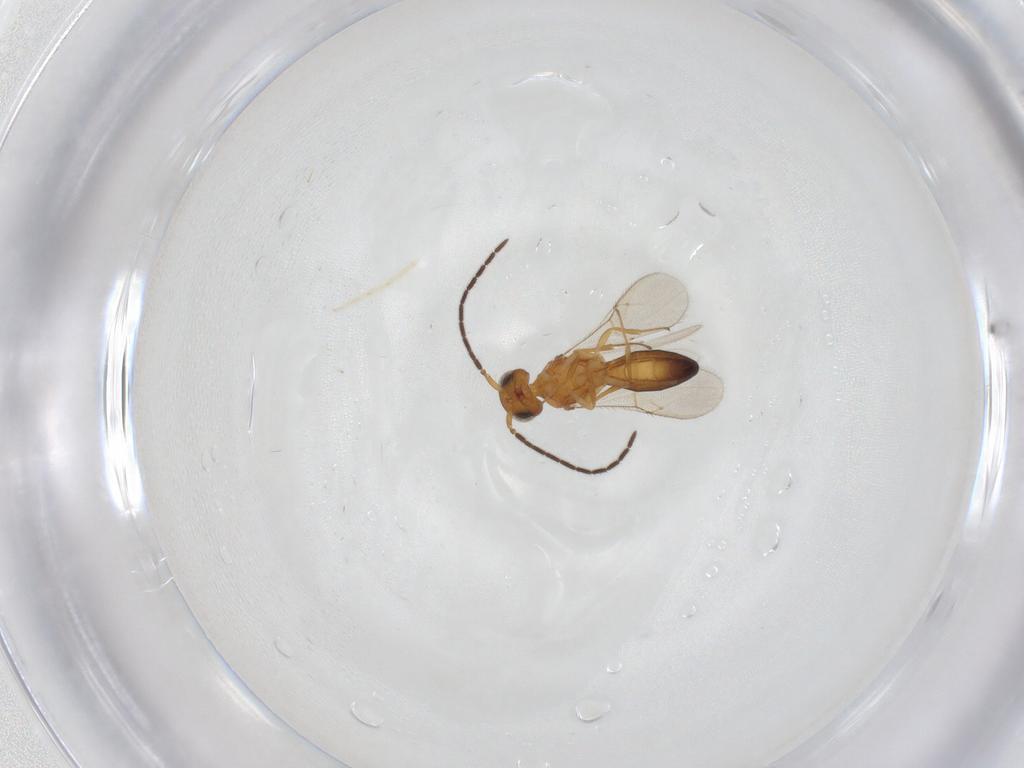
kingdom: Animalia
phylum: Arthropoda
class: Insecta
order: Hymenoptera
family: Scelionidae
